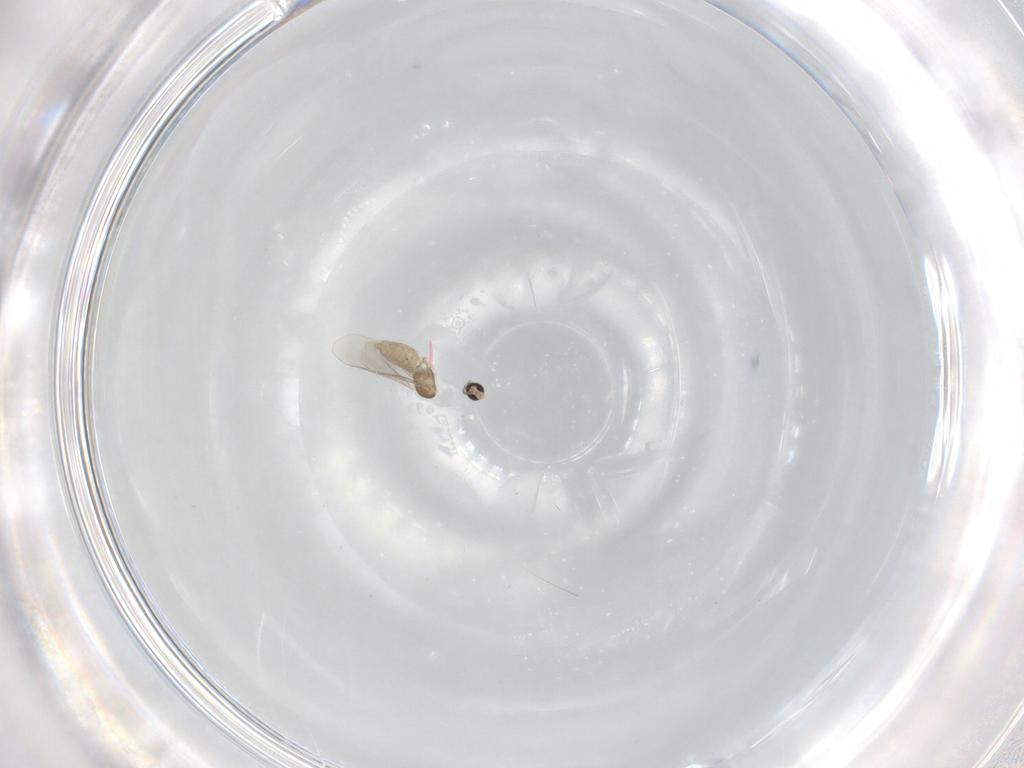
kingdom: Animalia
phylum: Arthropoda
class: Insecta
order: Diptera
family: Cecidomyiidae
